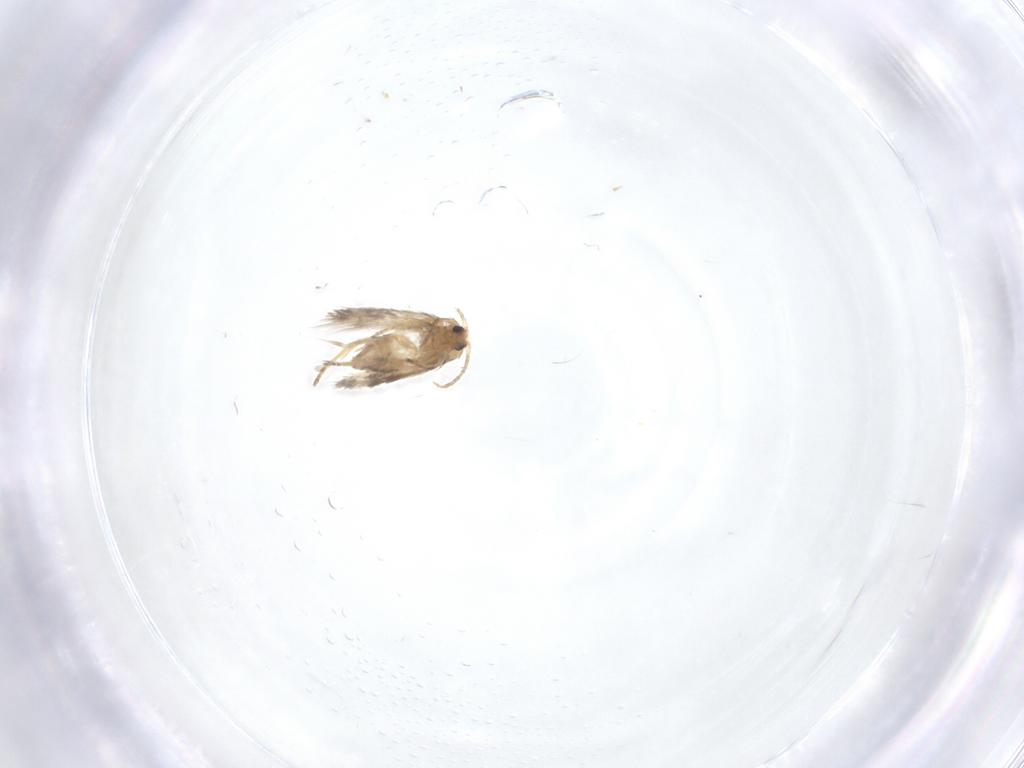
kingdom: Animalia
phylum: Arthropoda
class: Insecta
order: Lepidoptera
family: Nepticulidae
